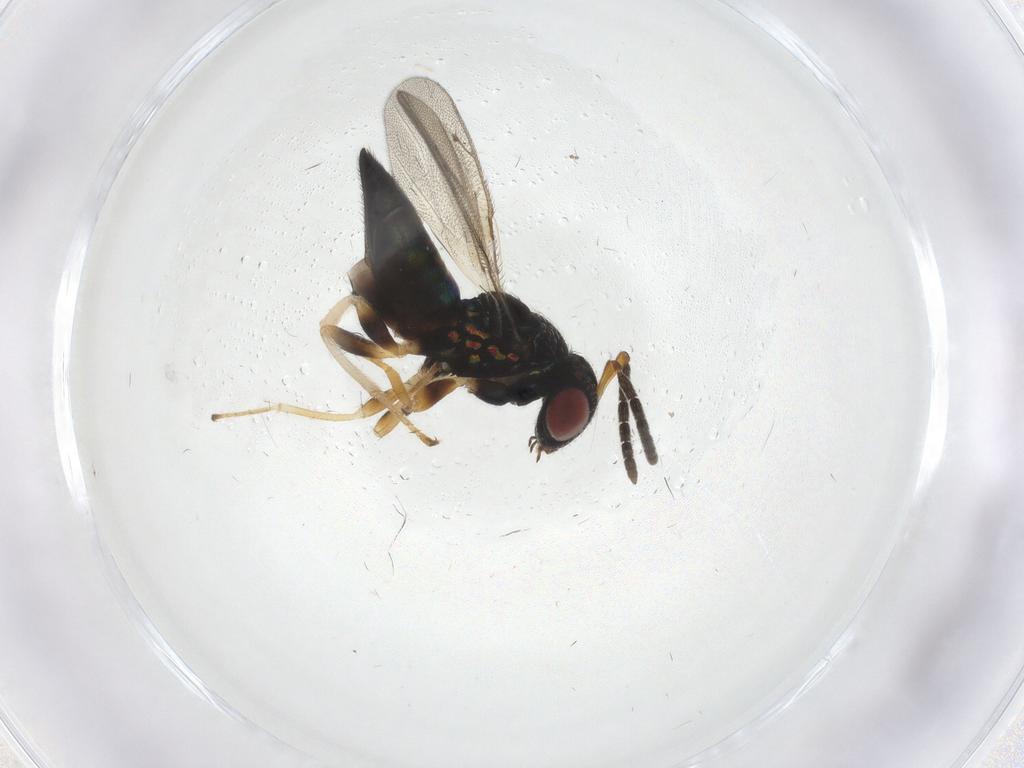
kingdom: Animalia
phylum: Arthropoda
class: Insecta
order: Hymenoptera
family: Pteromalidae
